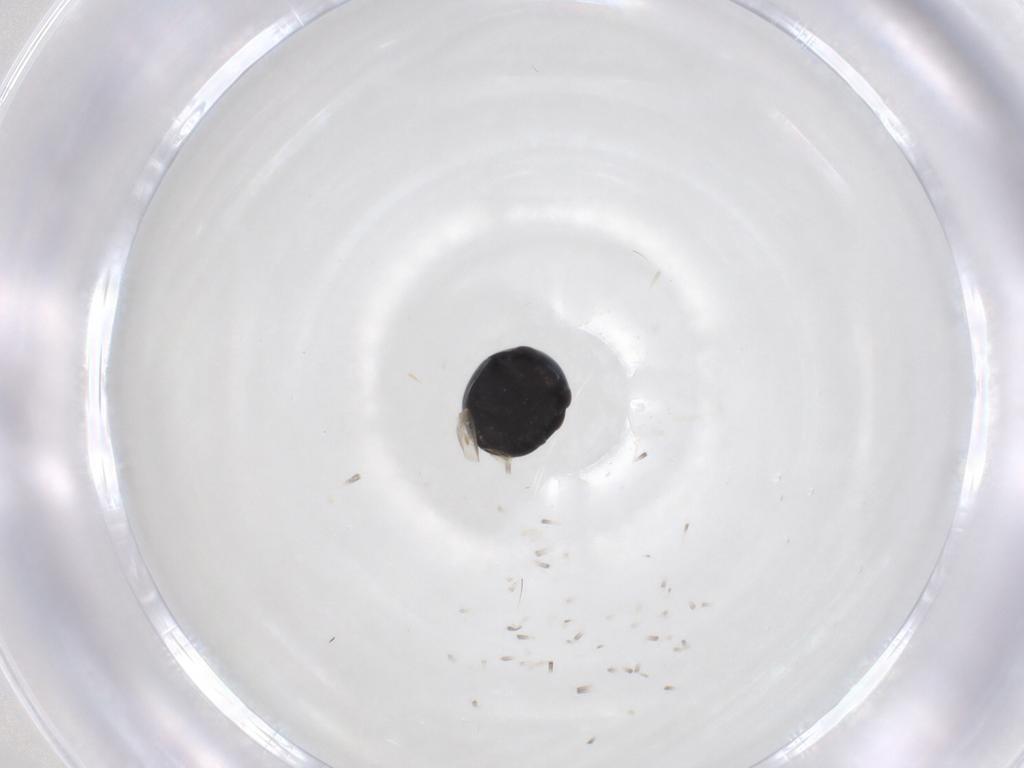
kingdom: Animalia
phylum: Arthropoda
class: Insecta
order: Coleoptera
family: Cybocephalidae
